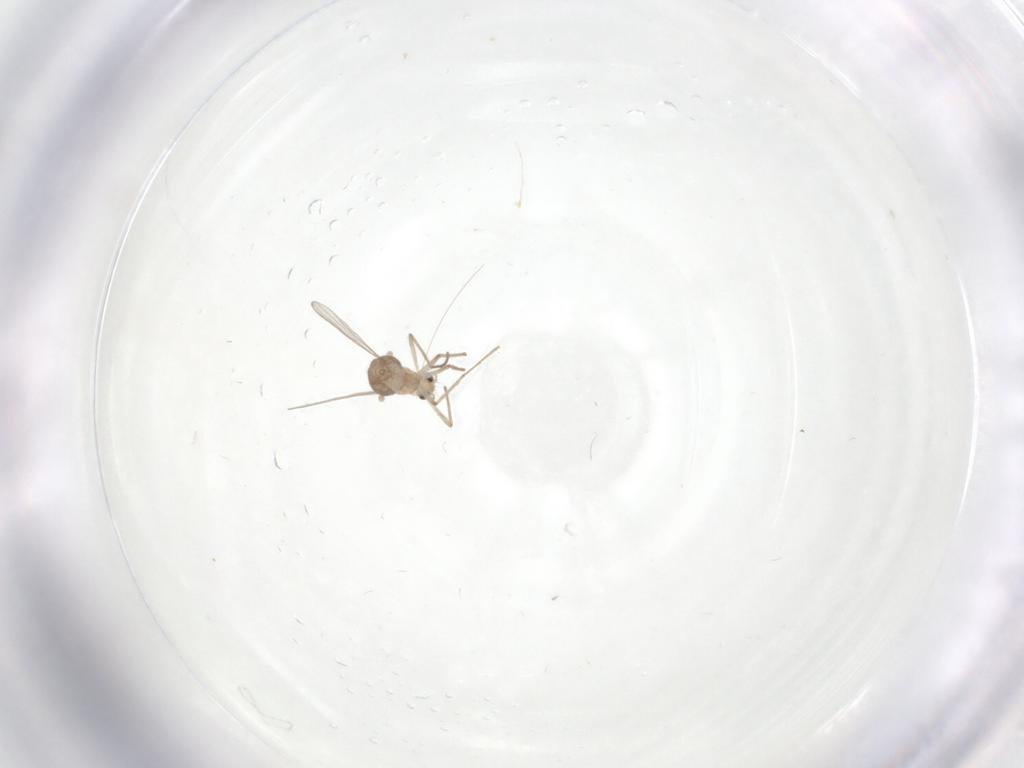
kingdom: Animalia
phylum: Arthropoda
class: Insecta
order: Diptera
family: Chironomidae
